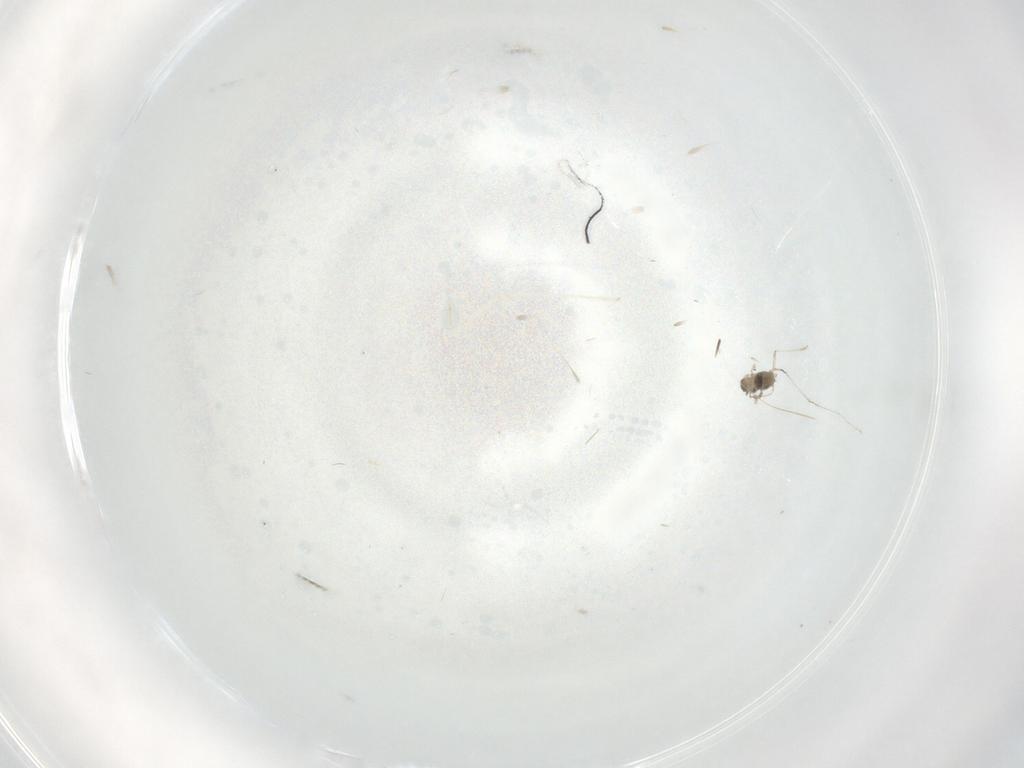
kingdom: Animalia
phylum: Arthropoda
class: Insecta
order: Diptera
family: Cecidomyiidae
